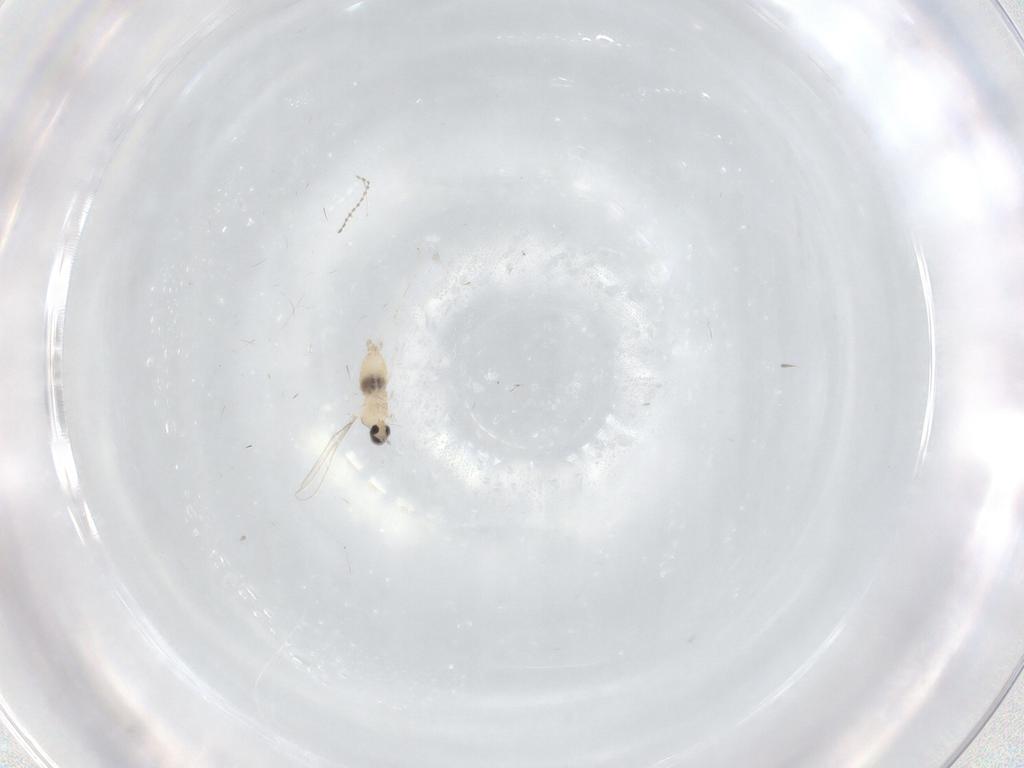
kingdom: Animalia
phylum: Arthropoda
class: Insecta
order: Diptera
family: Cecidomyiidae
